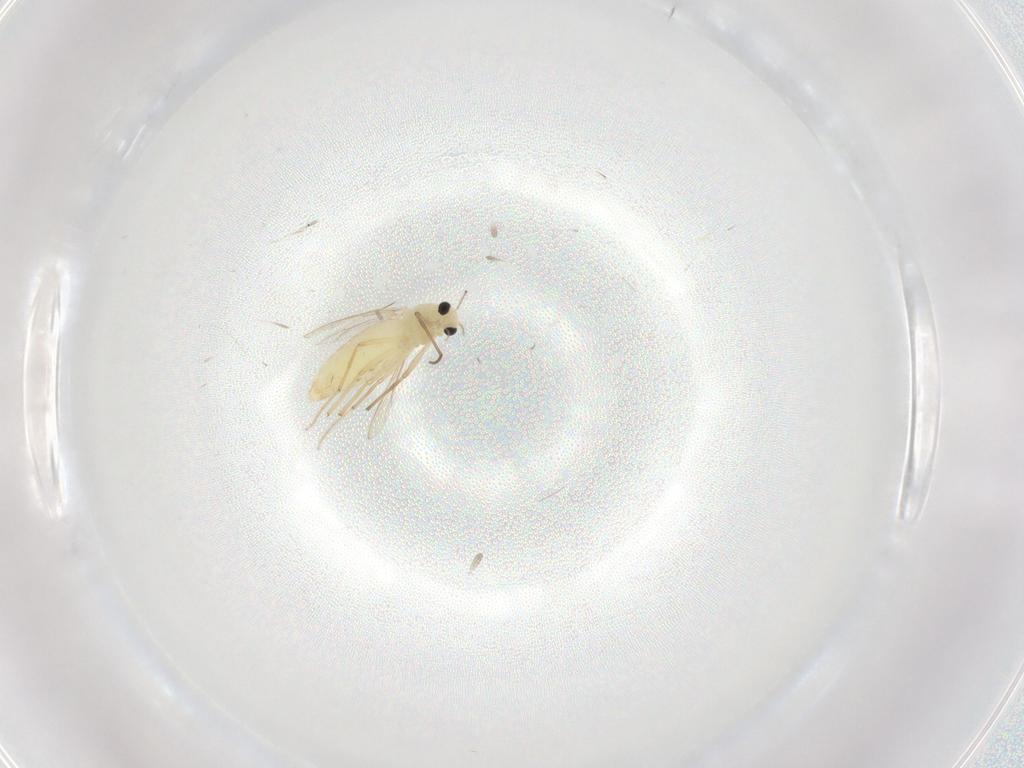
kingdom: Animalia
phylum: Arthropoda
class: Insecta
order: Diptera
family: Chironomidae
